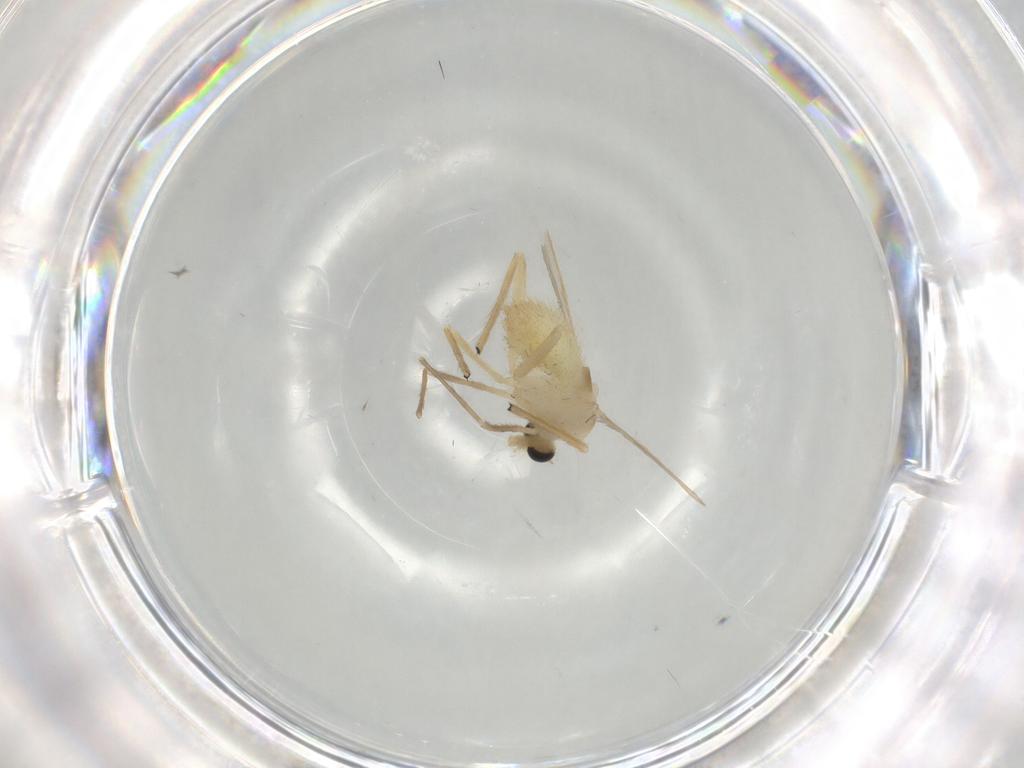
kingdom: Animalia
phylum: Arthropoda
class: Insecta
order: Diptera
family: Chironomidae
